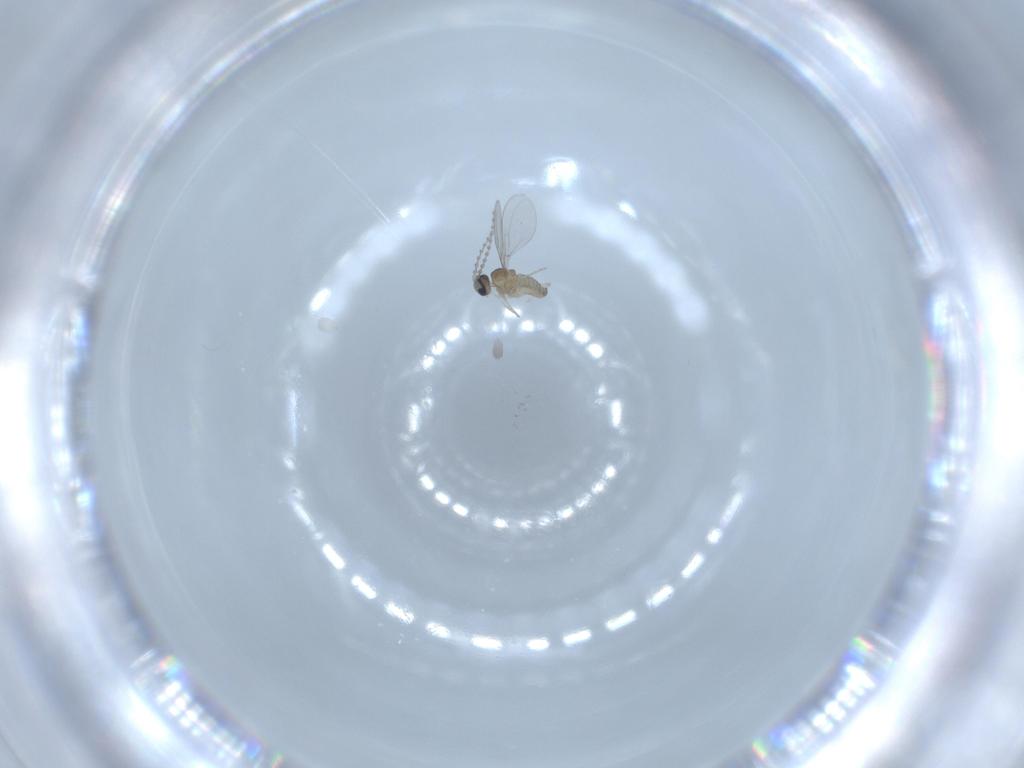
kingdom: Animalia
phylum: Arthropoda
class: Insecta
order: Diptera
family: Cecidomyiidae
